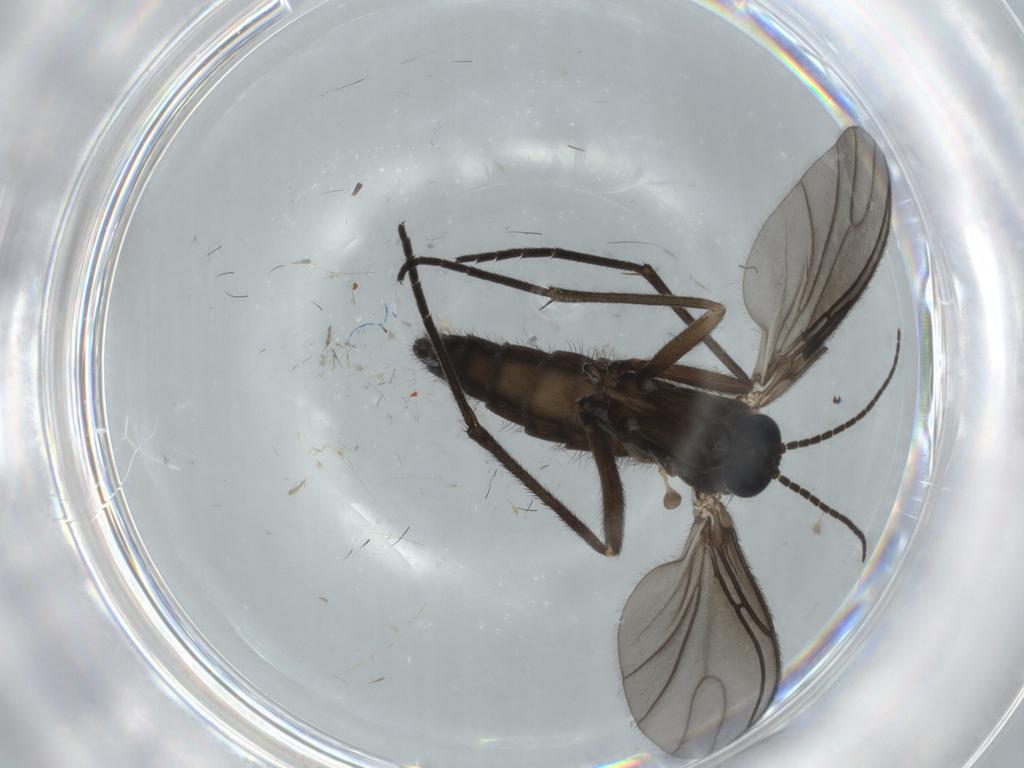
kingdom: Animalia
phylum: Arthropoda
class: Insecta
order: Diptera
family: Sciaridae
